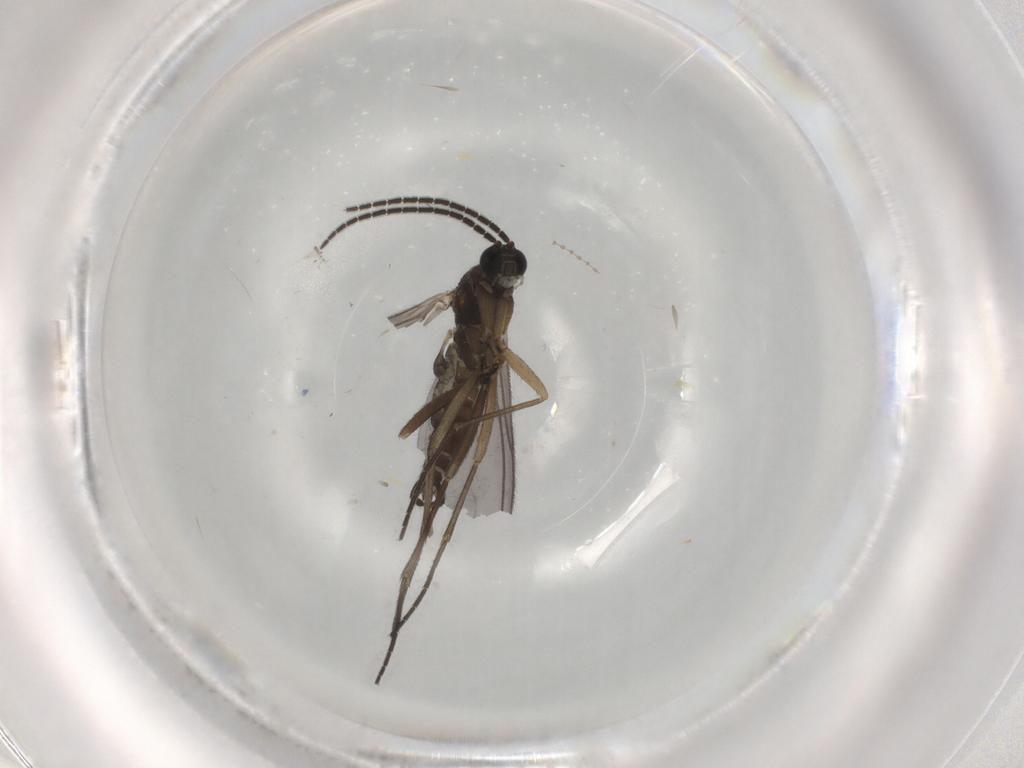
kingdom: Animalia
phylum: Arthropoda
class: Insecta
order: Diptera
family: Sciaridae
